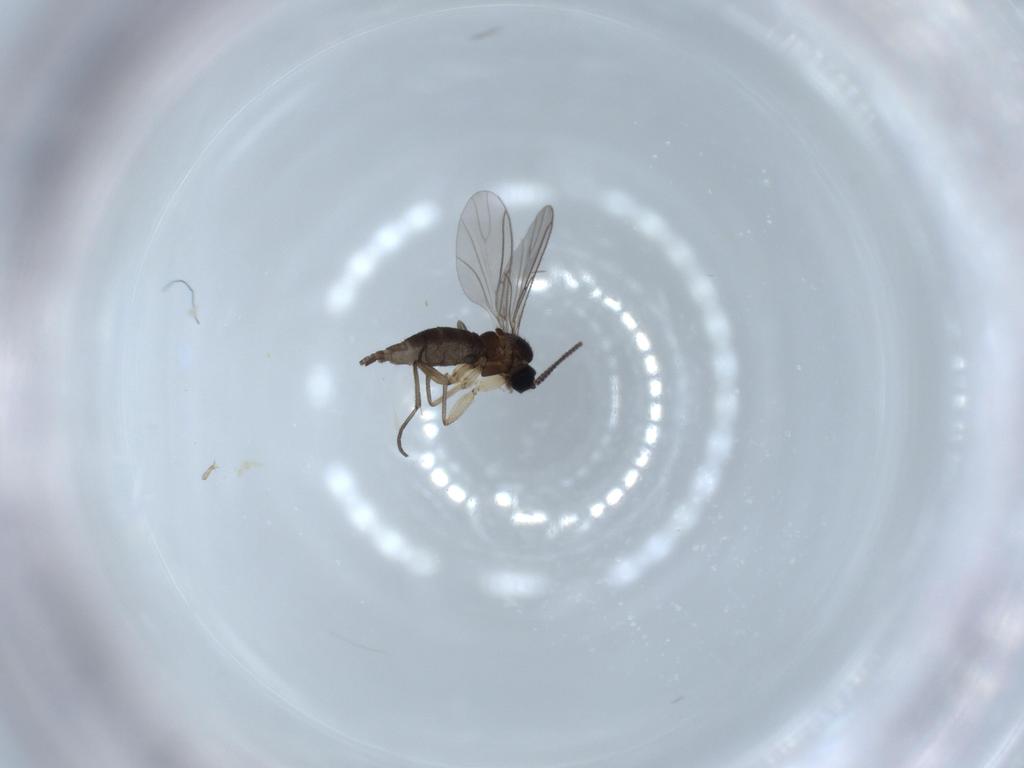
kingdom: Animalia
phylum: Arthropoda
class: Insecta
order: Diptera
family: Sciaridae
